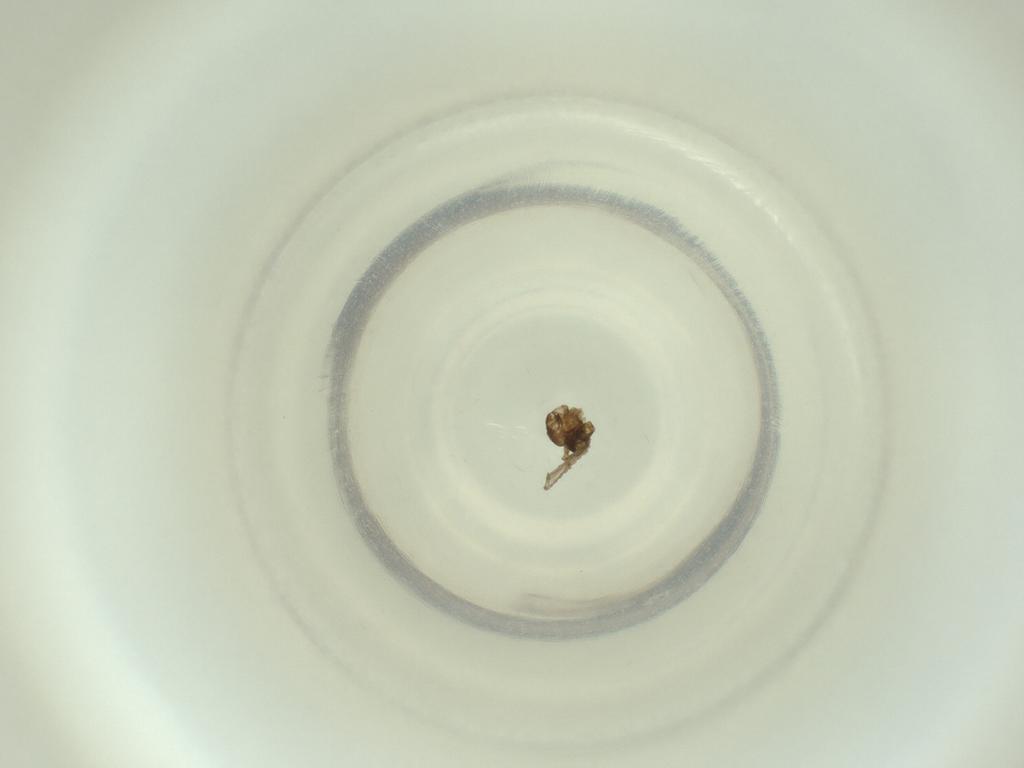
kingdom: Animalia
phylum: Arthropoda
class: Insecta
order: Diptera
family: Cecidomyiidae
